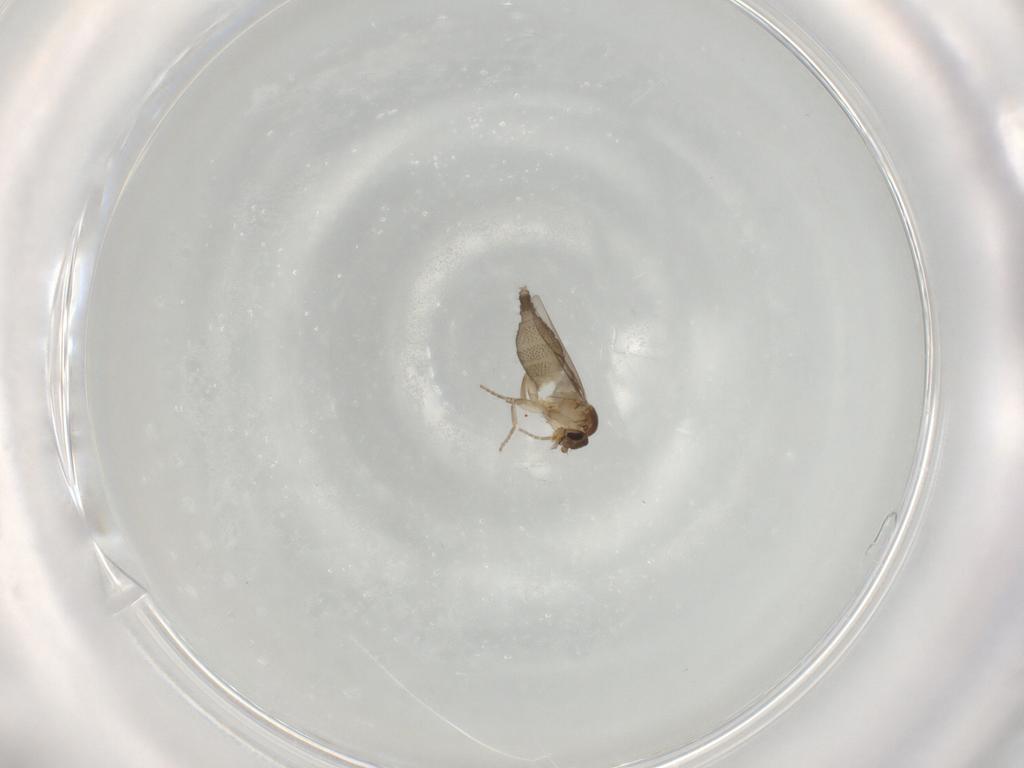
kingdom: Animalia
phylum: Arthropoda
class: Insecta
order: Diptera
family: Phoridae
